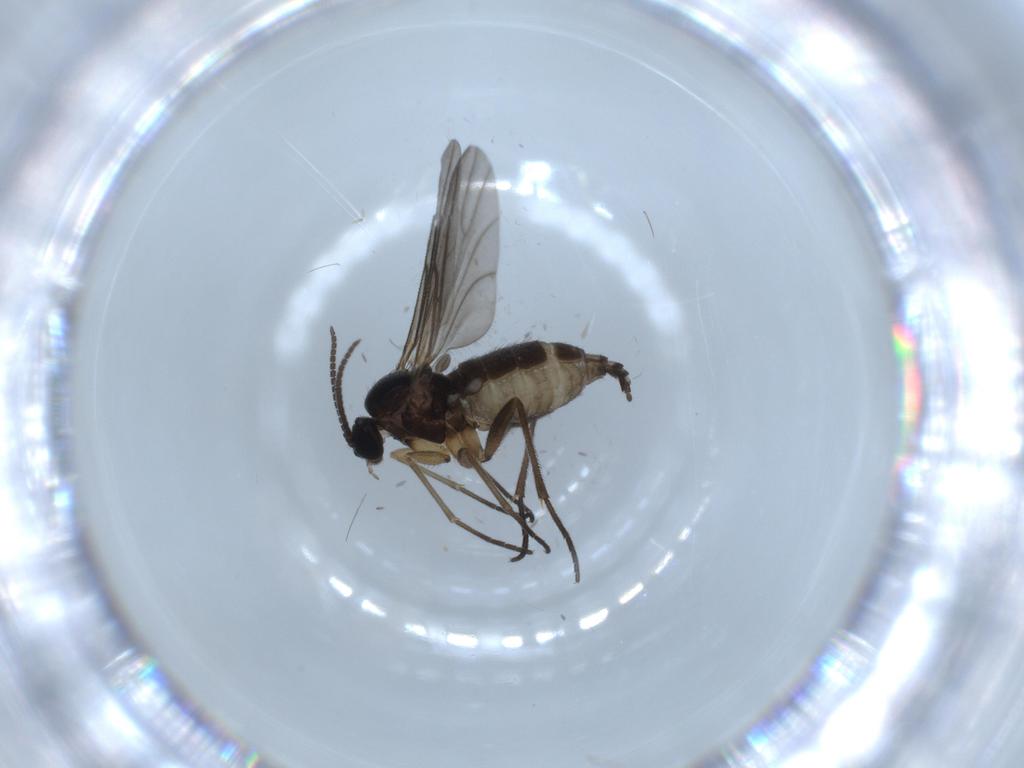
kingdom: Animalia
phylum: Arthropoda
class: Insecta
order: Diptera
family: Sciaridae
